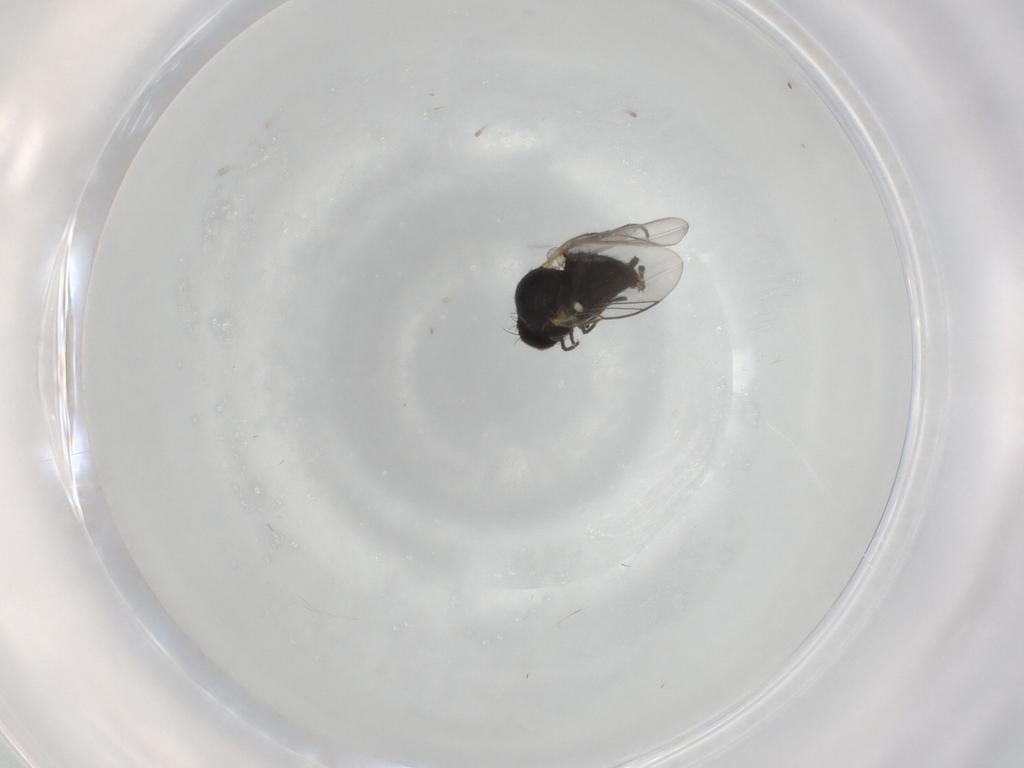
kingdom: Animalia
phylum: Arthropoda
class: Insecta
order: Diptera
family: Agromyzidae
